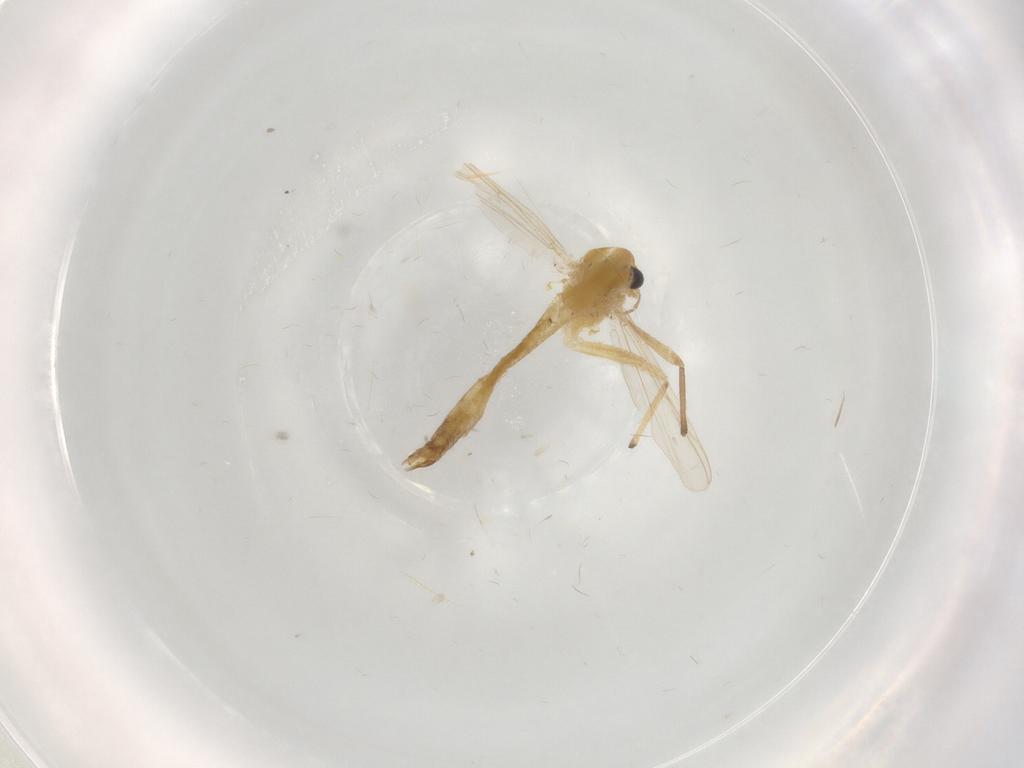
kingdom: Animalia
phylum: Arthropoda
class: Insecta
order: Diptera
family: Chironomidae
